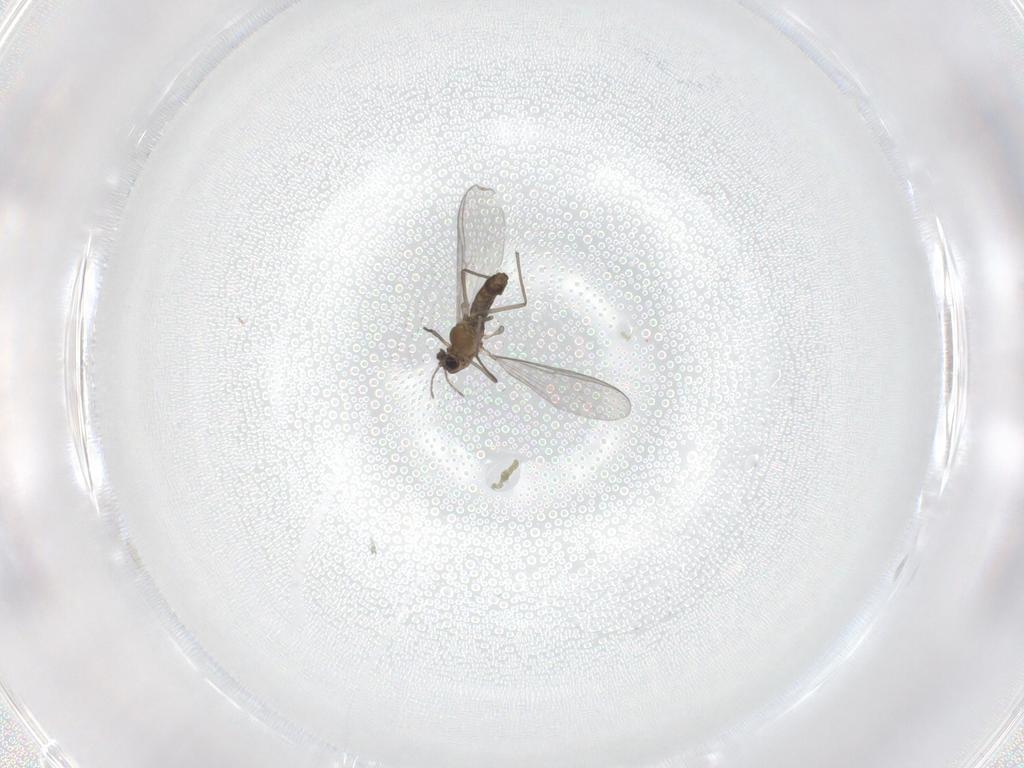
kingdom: Animalia
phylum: Arthropoda
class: Insecta
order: Diptera
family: Chironomidae
